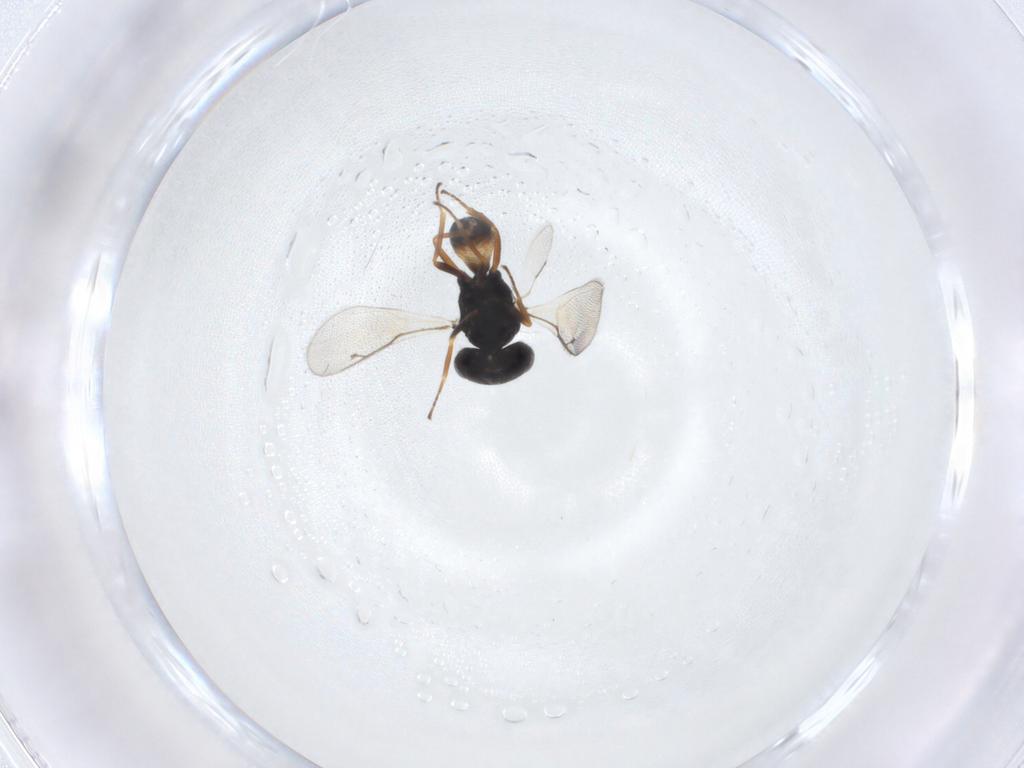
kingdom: Animalia
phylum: Arthropoda
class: Insecta
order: Hymenoptera
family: Pteromalidae
